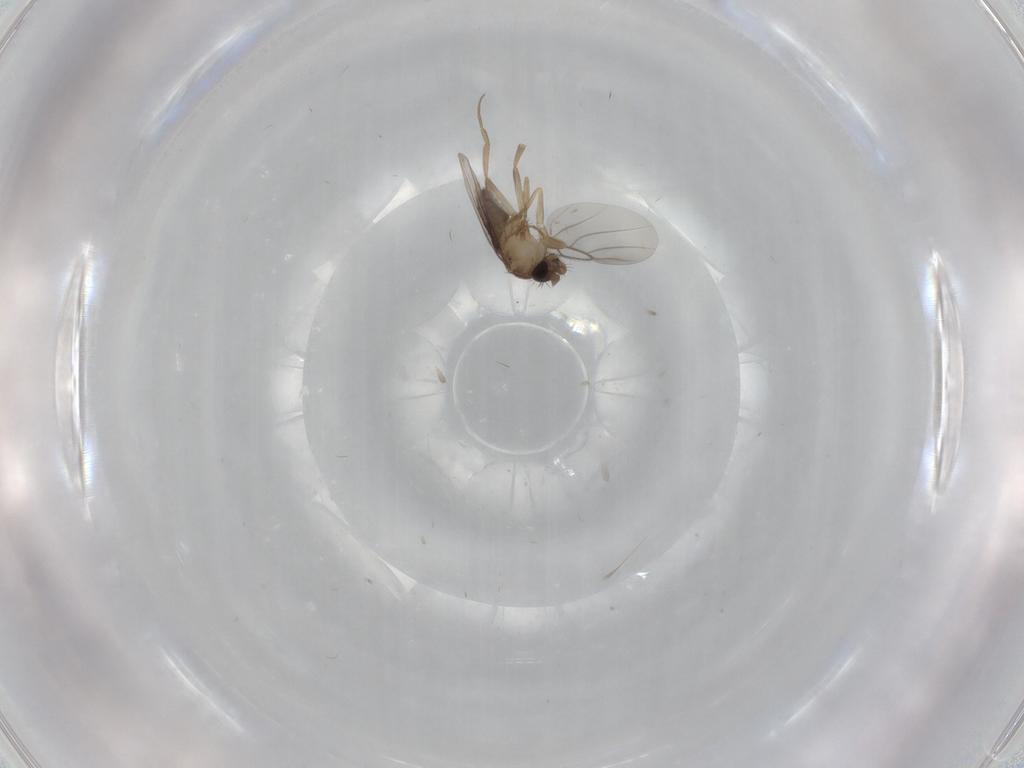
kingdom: Animalia
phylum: Arthropoda
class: Insecta
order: Diptera
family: Phoridae
